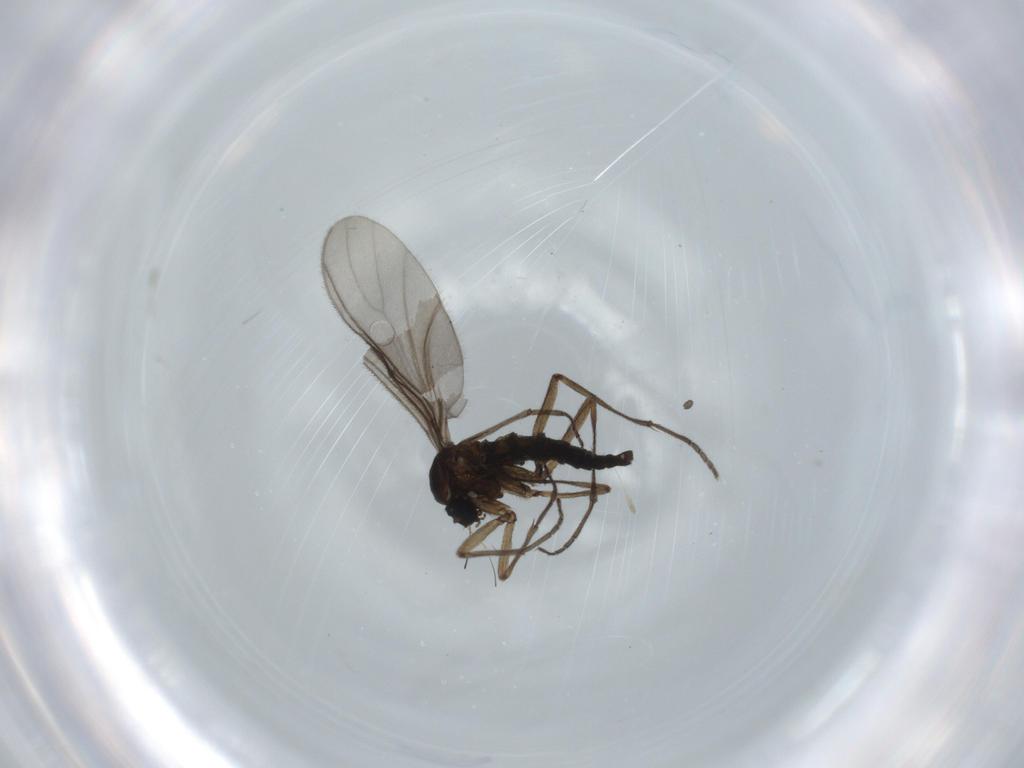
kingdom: Animalia
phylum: Arthropoda
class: Insecta
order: Diptera
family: Sciaridae
